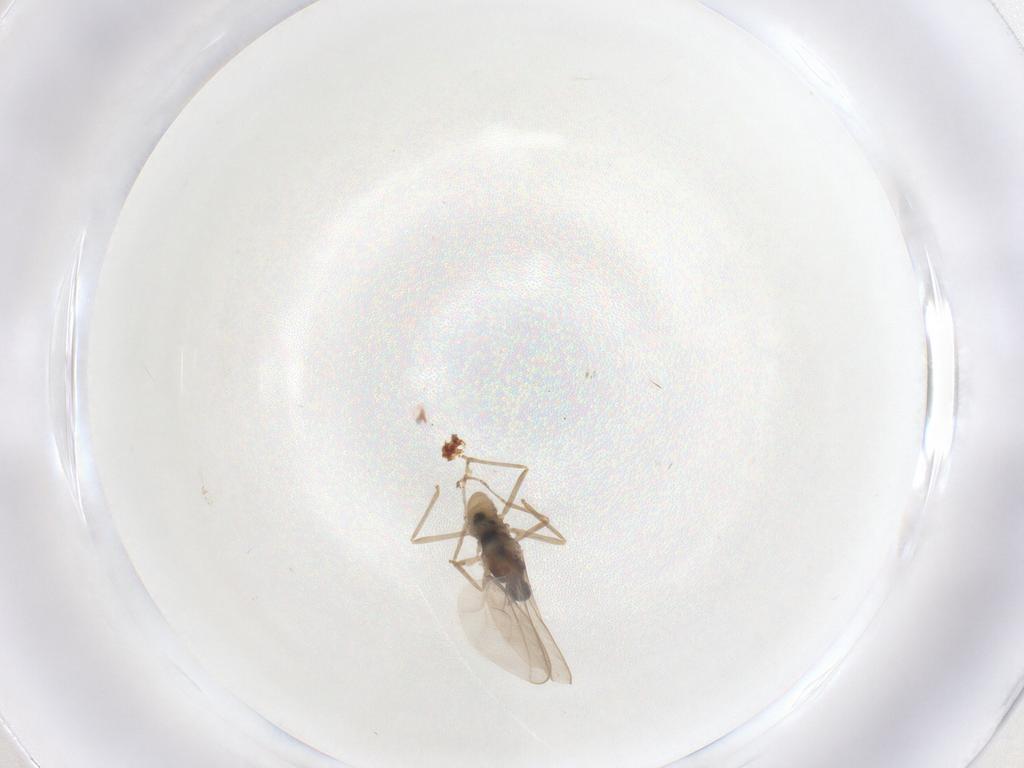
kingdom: Animalia
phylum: Arthropoda
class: Insecta
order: Diptera
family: Cecidomyiidae
